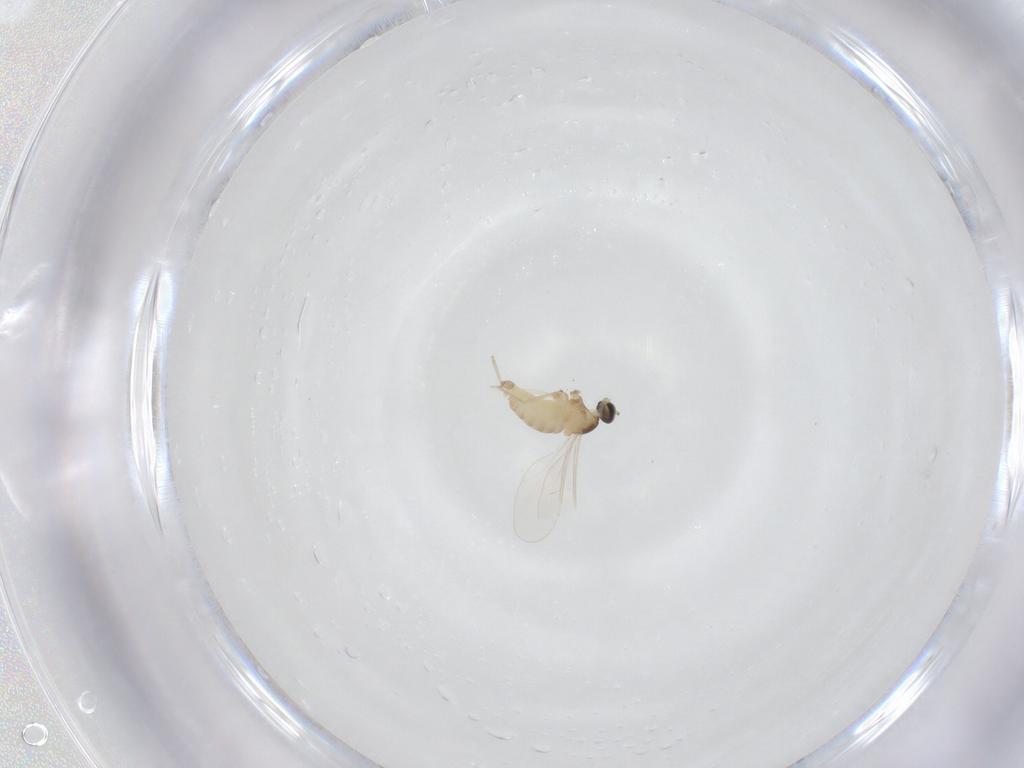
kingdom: Animalia
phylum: Arthropoda
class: Insecta
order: Diptera
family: Cecidomyiidae
